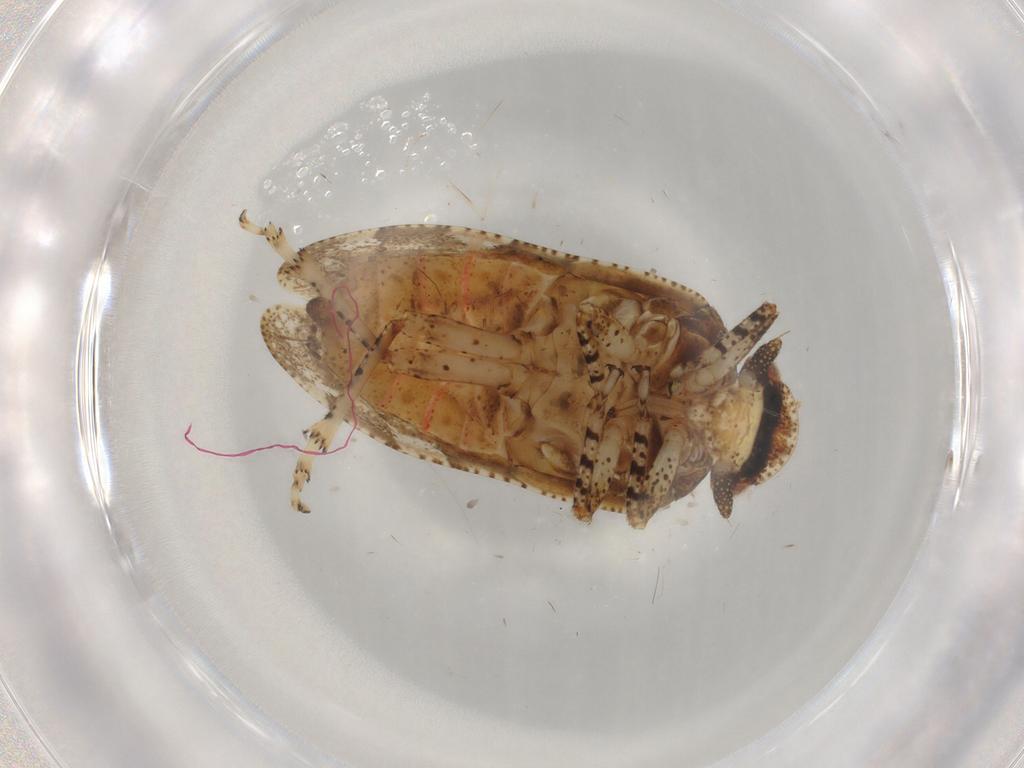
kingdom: Animalia
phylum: Arthropoda
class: Insecta
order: Hemiptera
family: Tettigometridae
